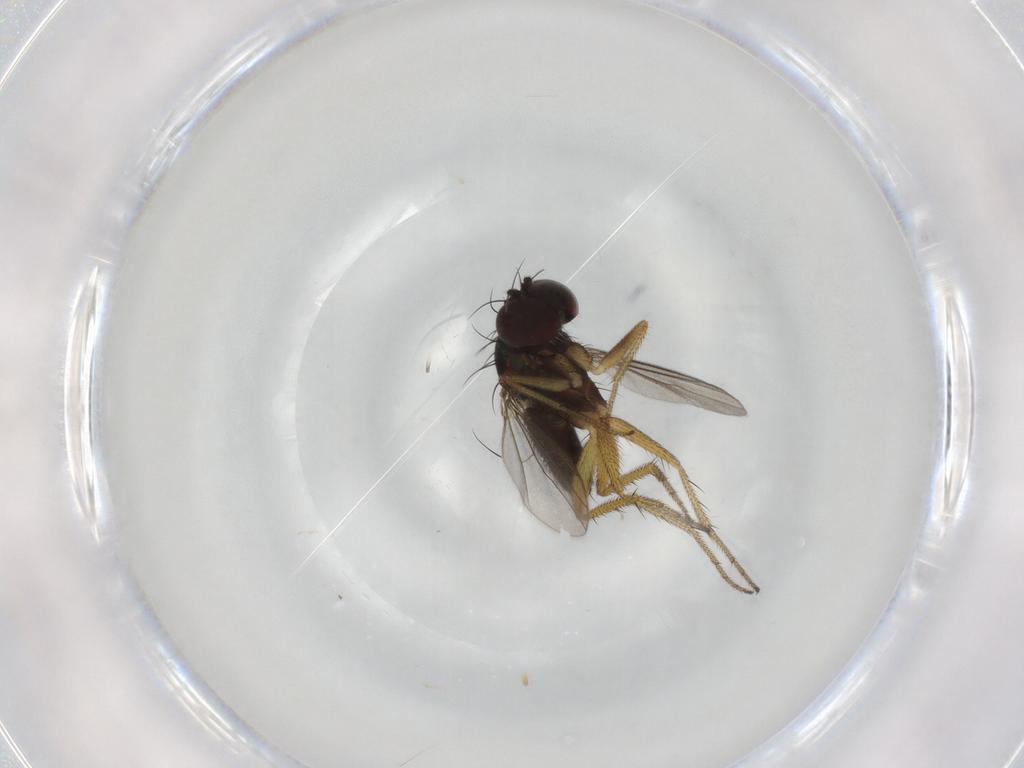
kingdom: Animalia
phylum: Arthropoda
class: Insecta
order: Diptera
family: Dolichopodidae
